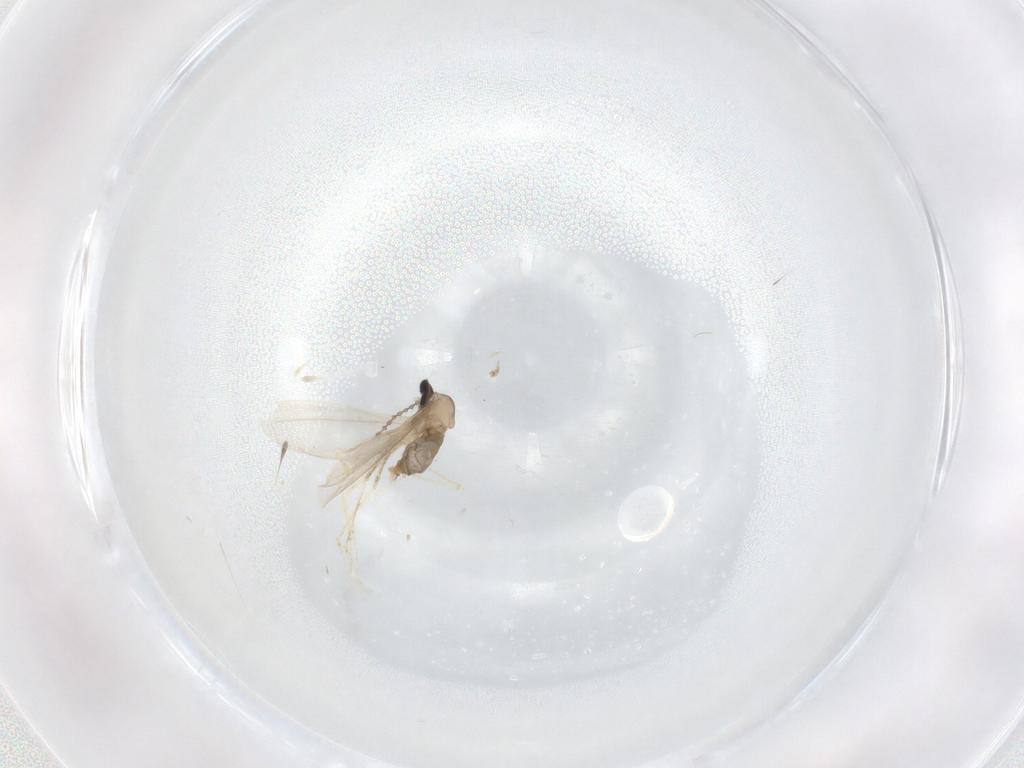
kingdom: Animalia
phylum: Arthropoda
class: Insecta
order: Diptera
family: Cecidomyiidae
